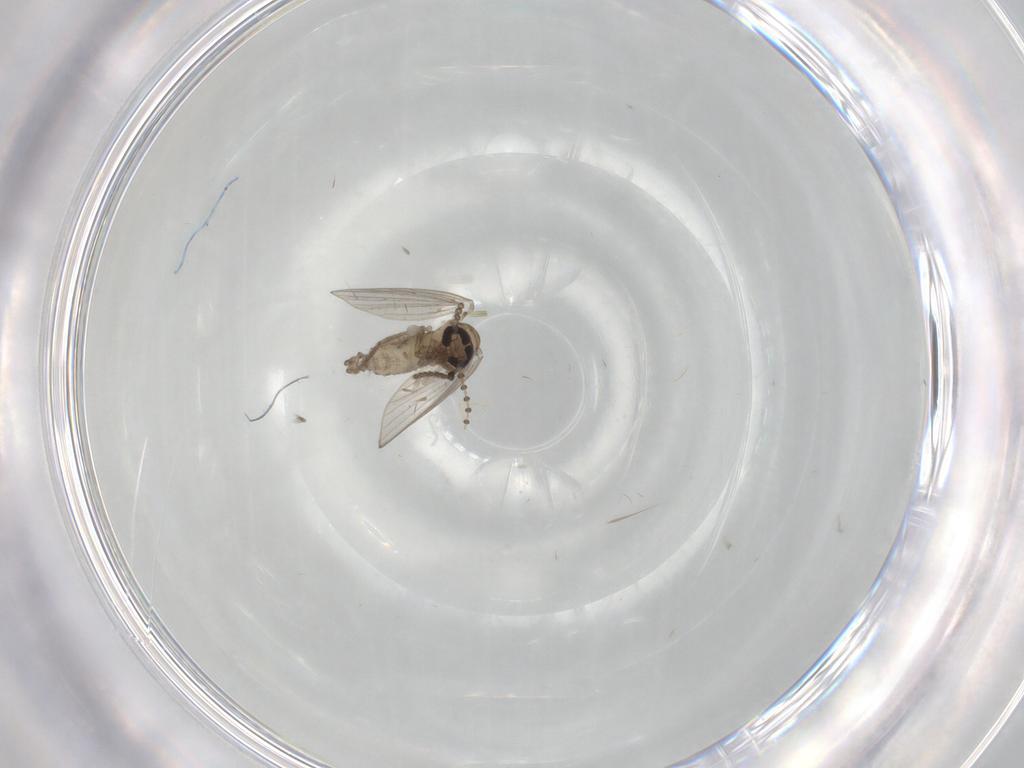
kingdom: Animalia
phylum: Arthropoda
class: Insecta
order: Diptera
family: Psychodidae
